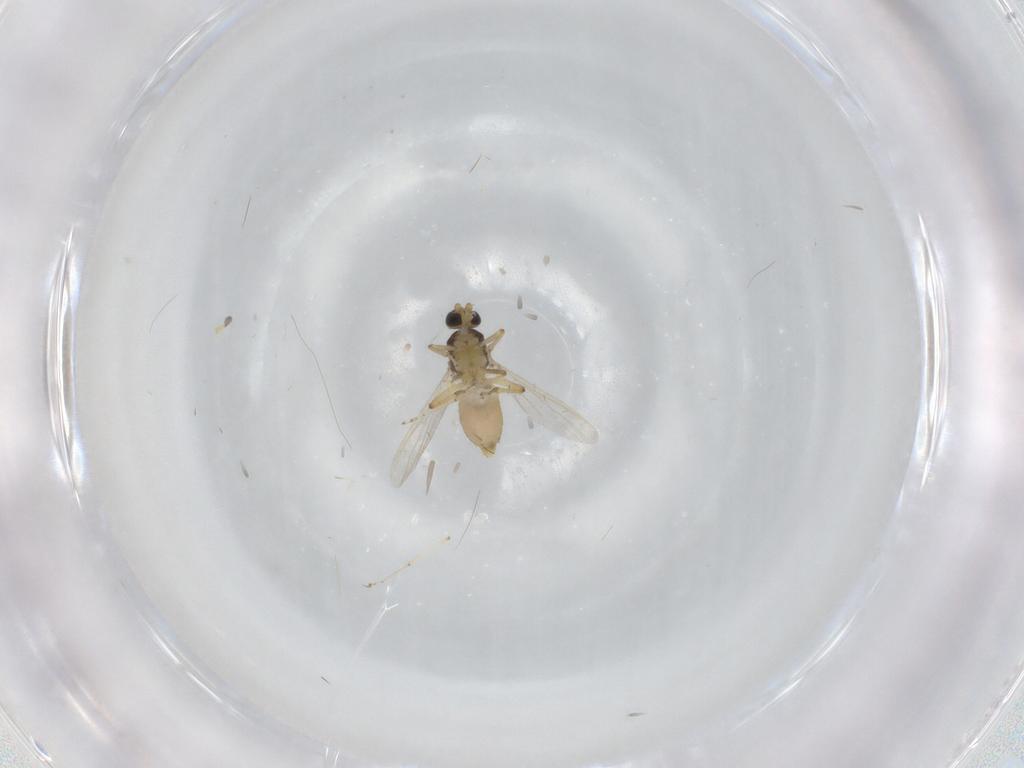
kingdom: Animalia
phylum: Arthropoda
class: Insecta
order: Diptera
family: Ceratopogonidae
